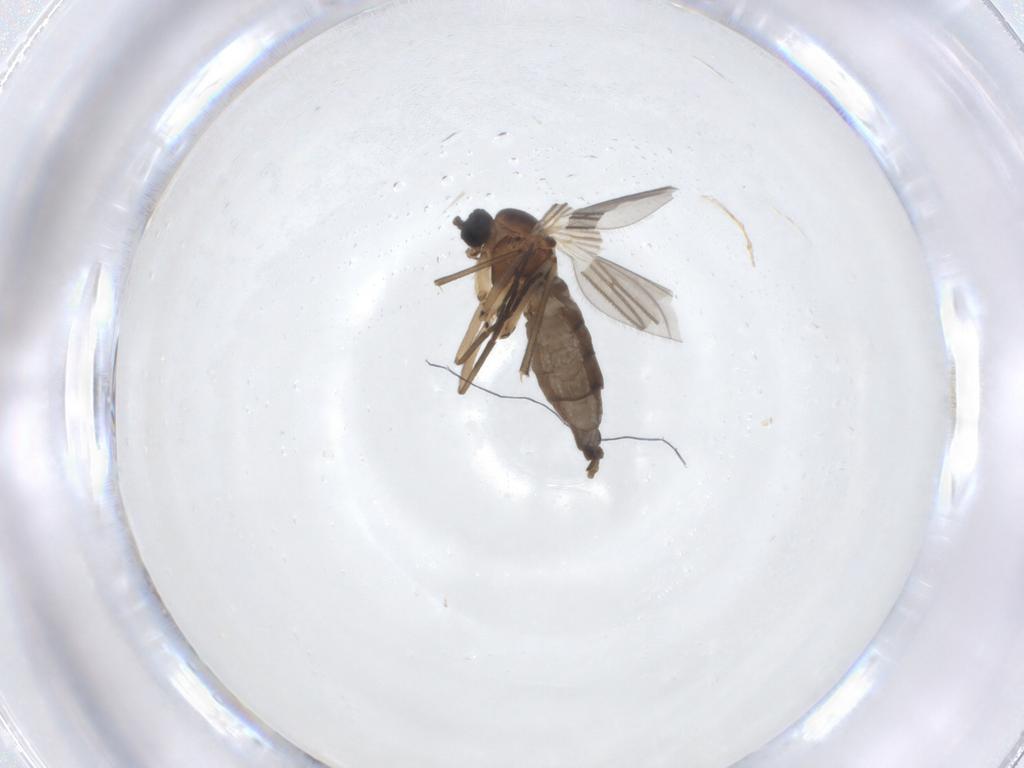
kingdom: Animalia
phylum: Arthropoda
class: Insecta
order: Diptera
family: Sciaridae
